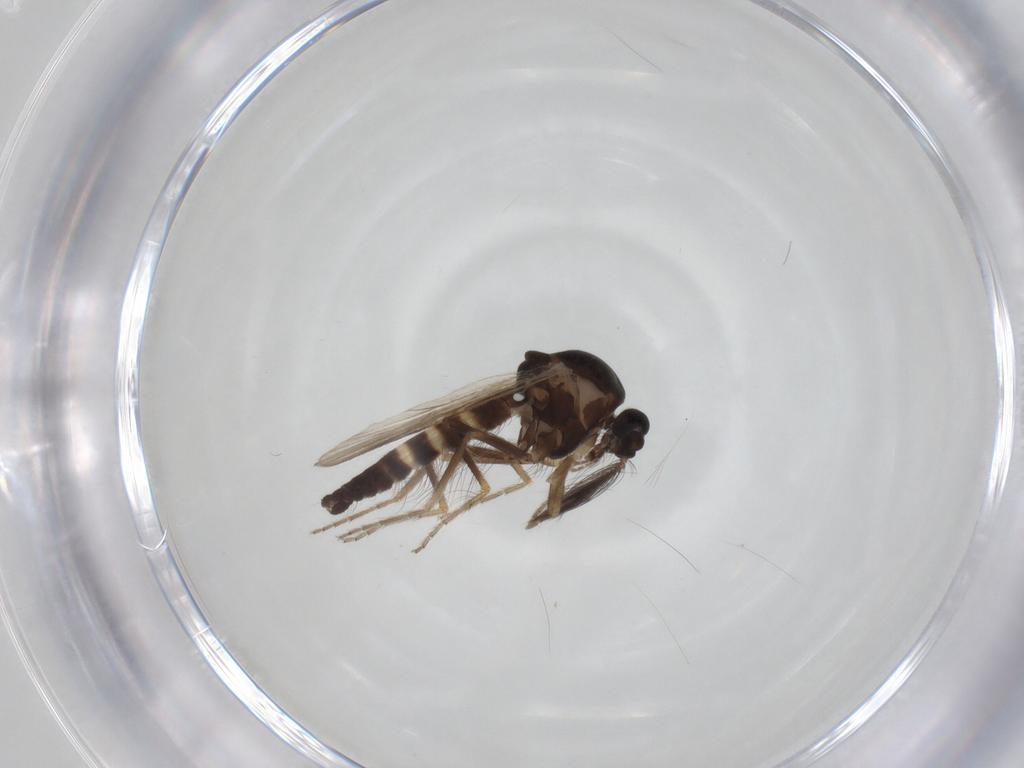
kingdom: Animalia
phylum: Arthropoda
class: Insecta
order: Diptera
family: Ceratopogonidae
